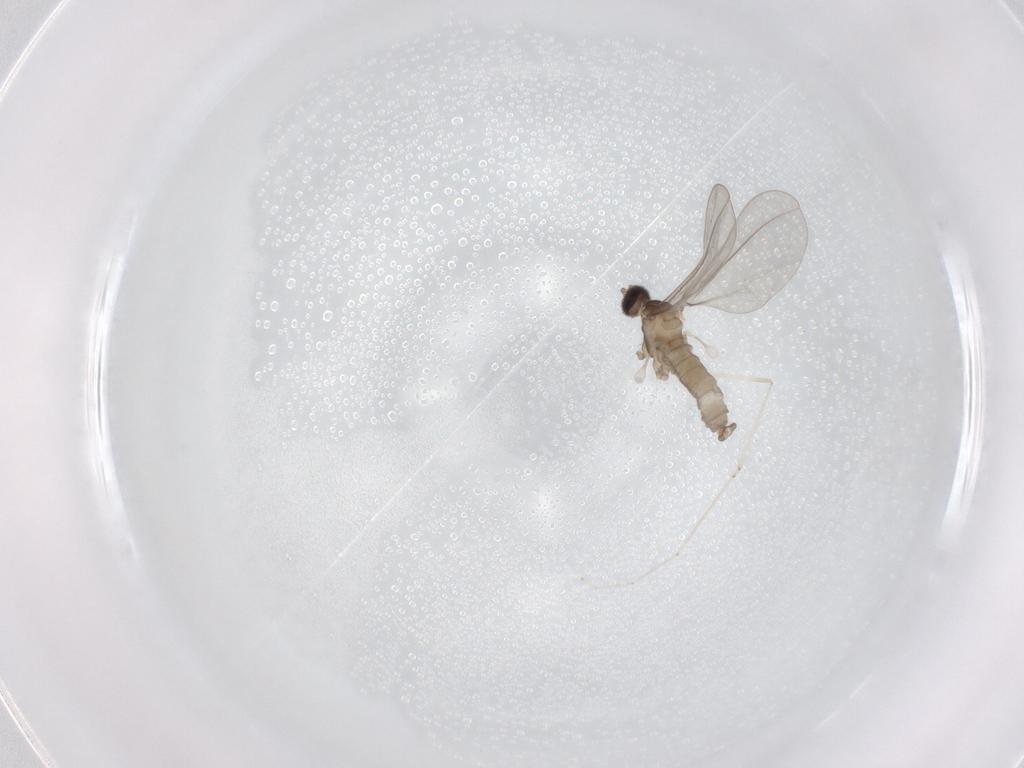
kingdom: Animalia
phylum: Arthropoda
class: Insecta
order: Diptera
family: Cecidomyiidae
